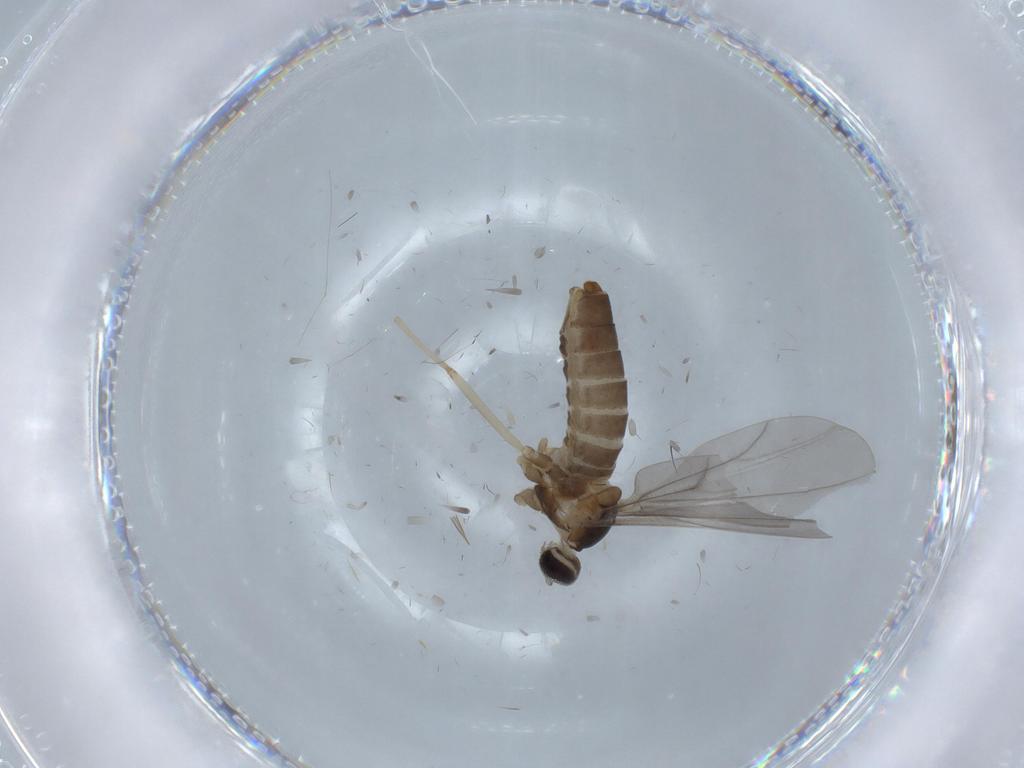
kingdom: Animalia
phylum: Arthropoda
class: Insecta
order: Diptera
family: Cecidomyiidae
